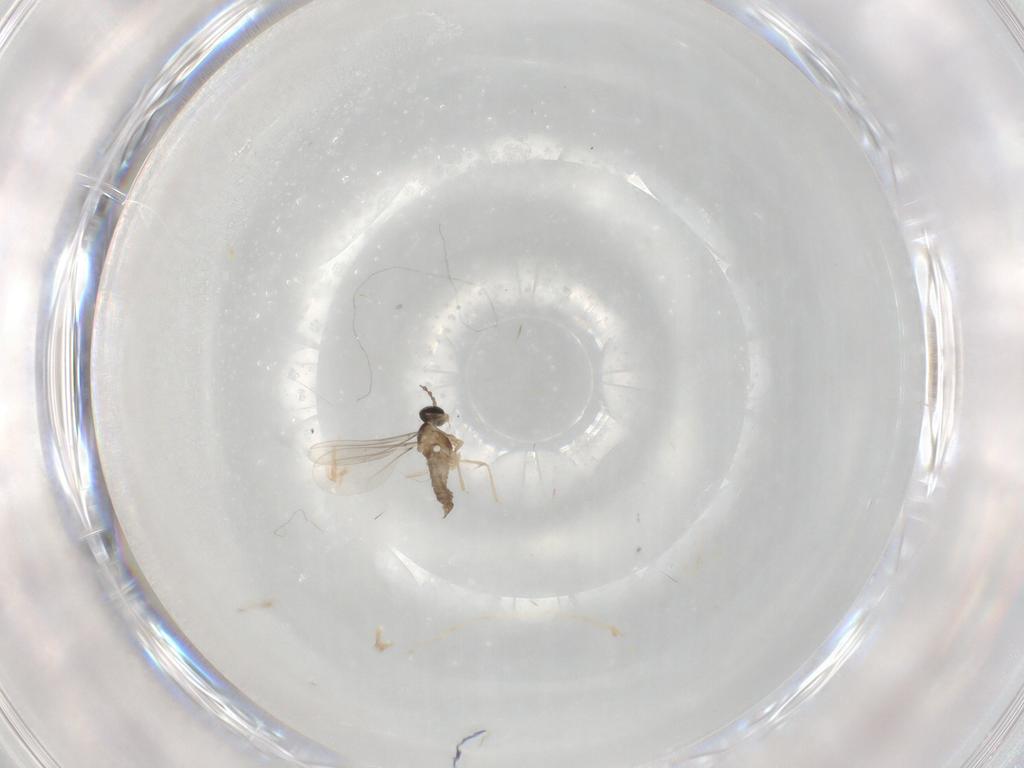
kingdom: Animalia
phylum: Arthropoda
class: Insecta
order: Diptera
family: Cecidomyiidae
